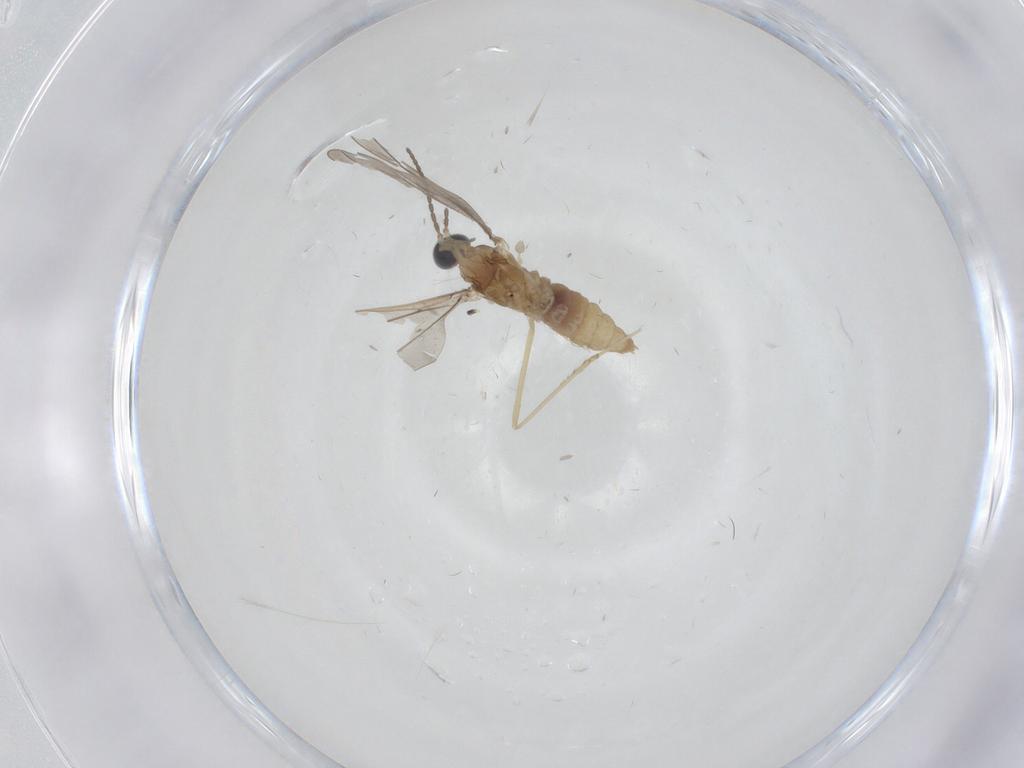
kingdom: Animalia
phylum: Arthropoda
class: Insecta
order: Diptera
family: Cecidomyiidae
